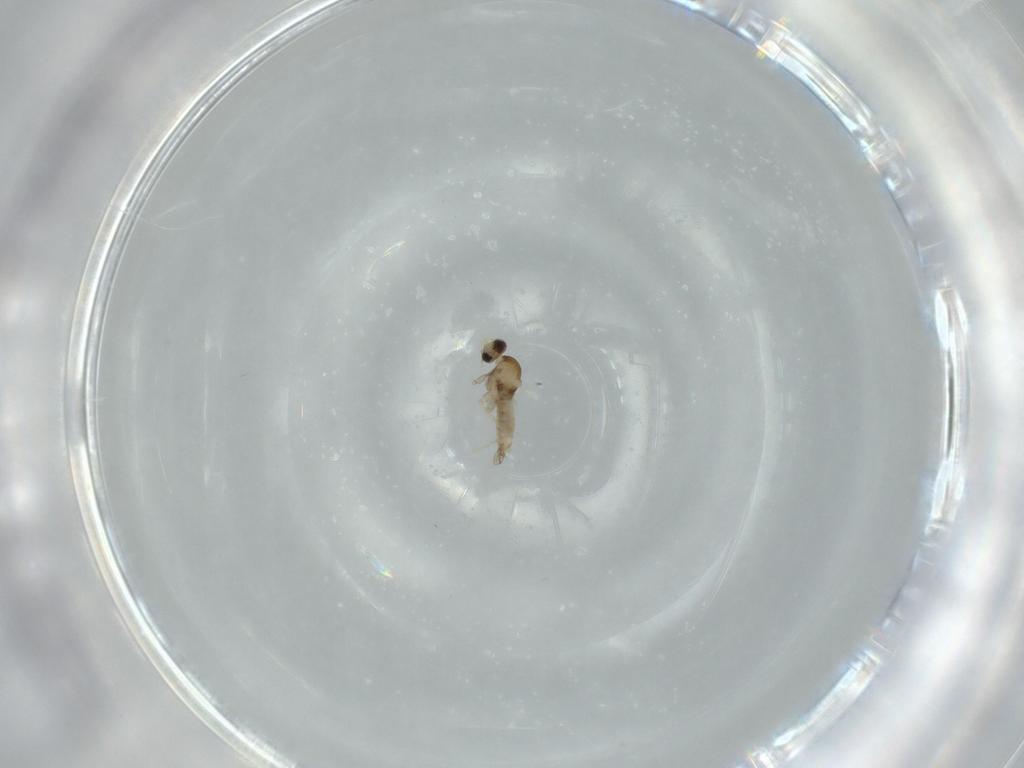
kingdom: Animalia
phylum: Arthropoda
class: Insecta
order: Diptera
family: Cecidomyiidae
